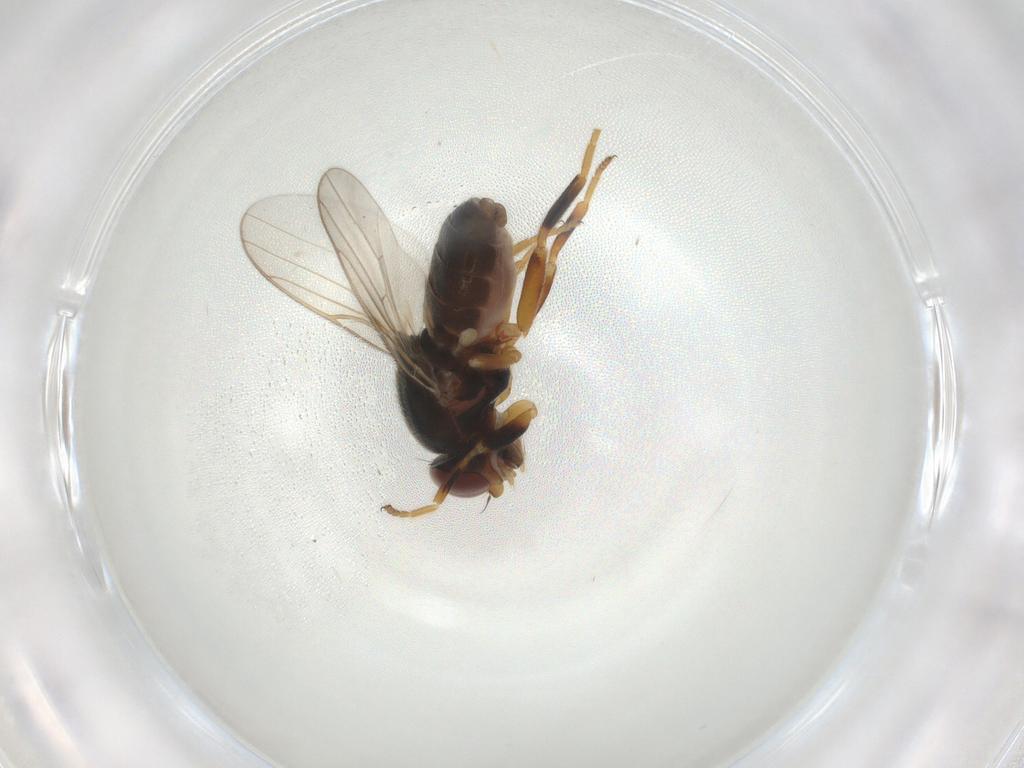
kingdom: Animalia
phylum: Arthropoda
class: Insecta
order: Diptera
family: Chloropidae
